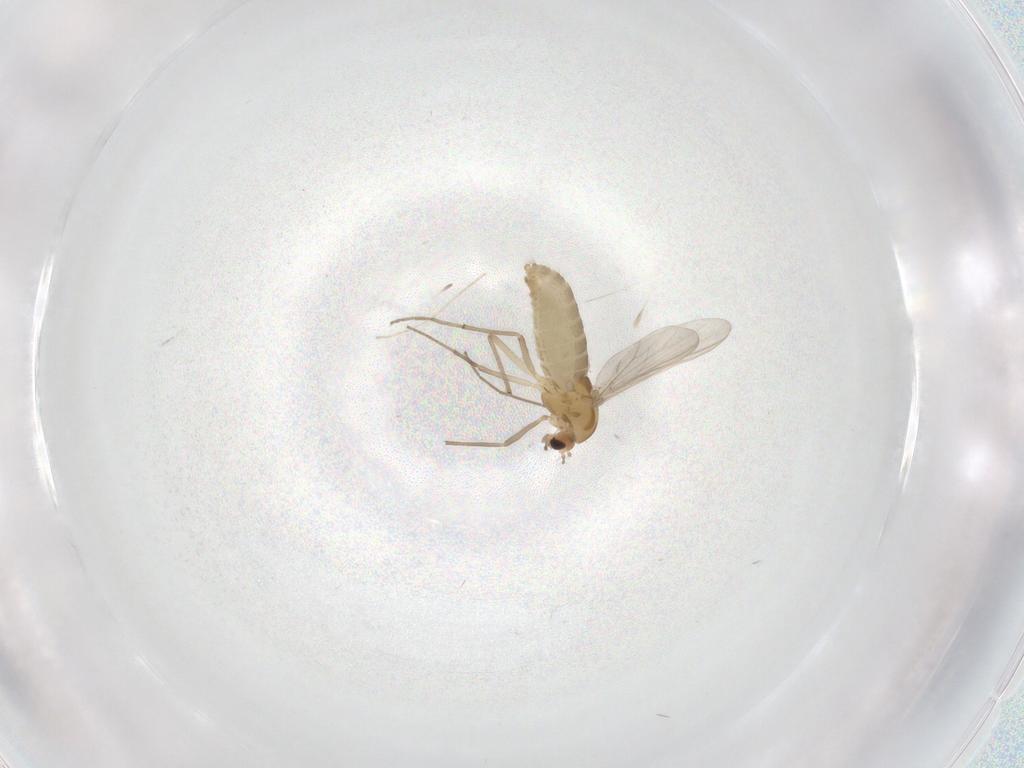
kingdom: Animalia
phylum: Arthropoda
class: Insecta
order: Diptera
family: Chironomidae
